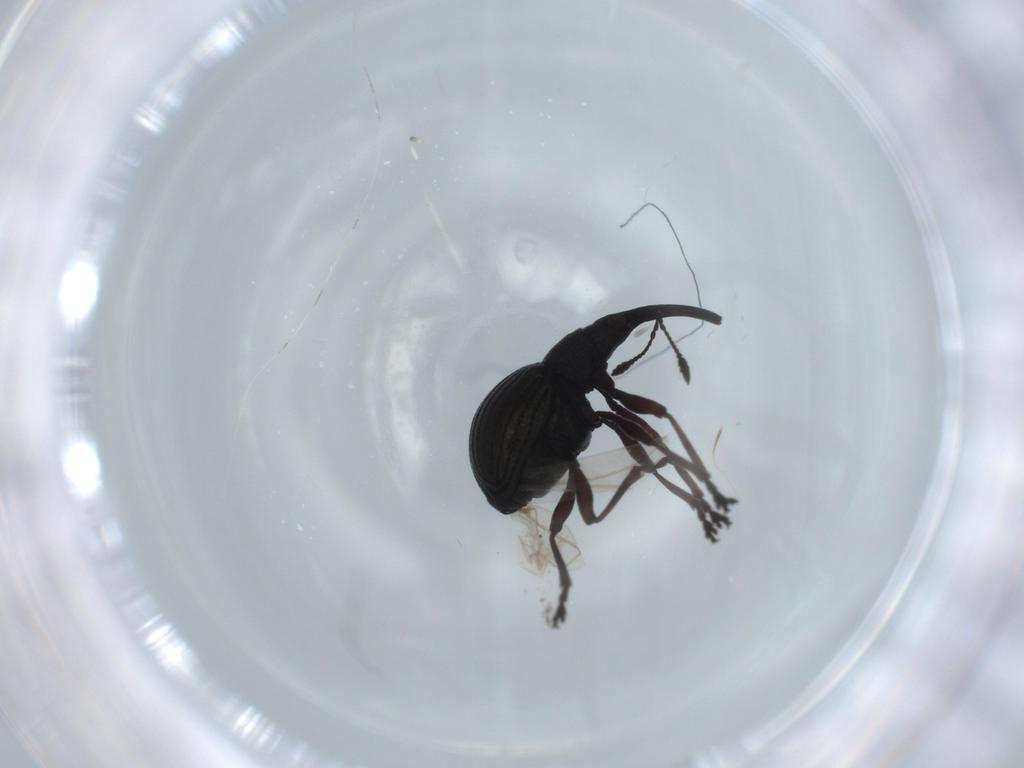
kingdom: Animalia
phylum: Arthropoda
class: Insecta
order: Coleoptera
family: Brentidae
